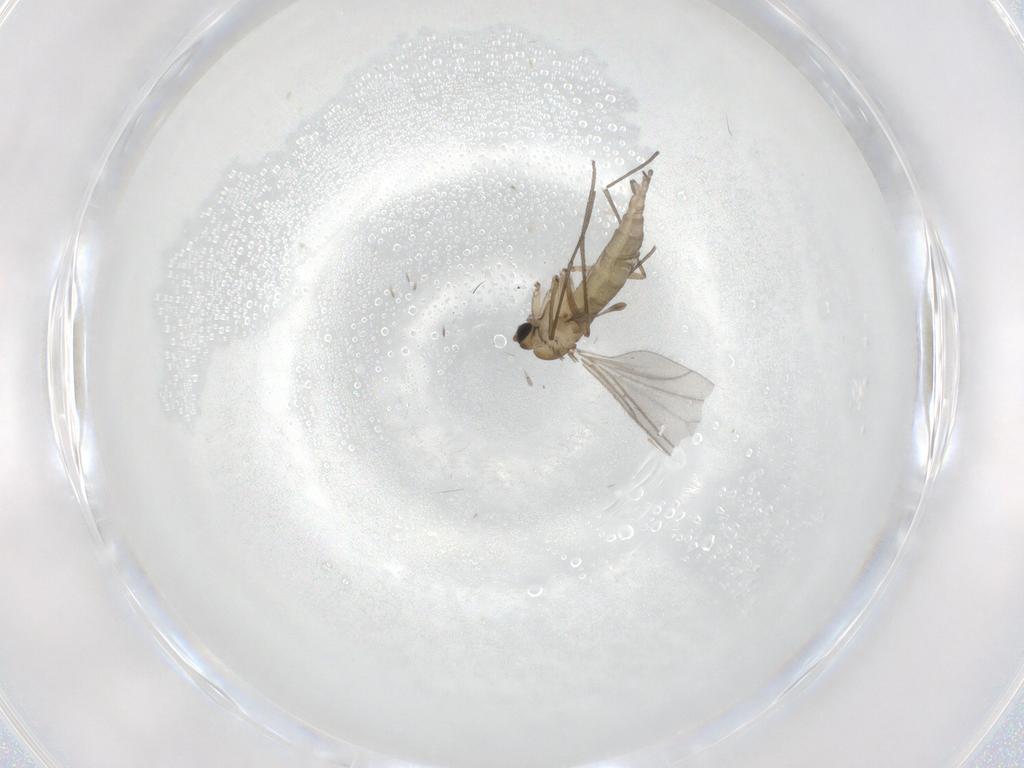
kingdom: Animalia
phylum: Arthropoda
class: Insecta
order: Diptera
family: Sciaridae
